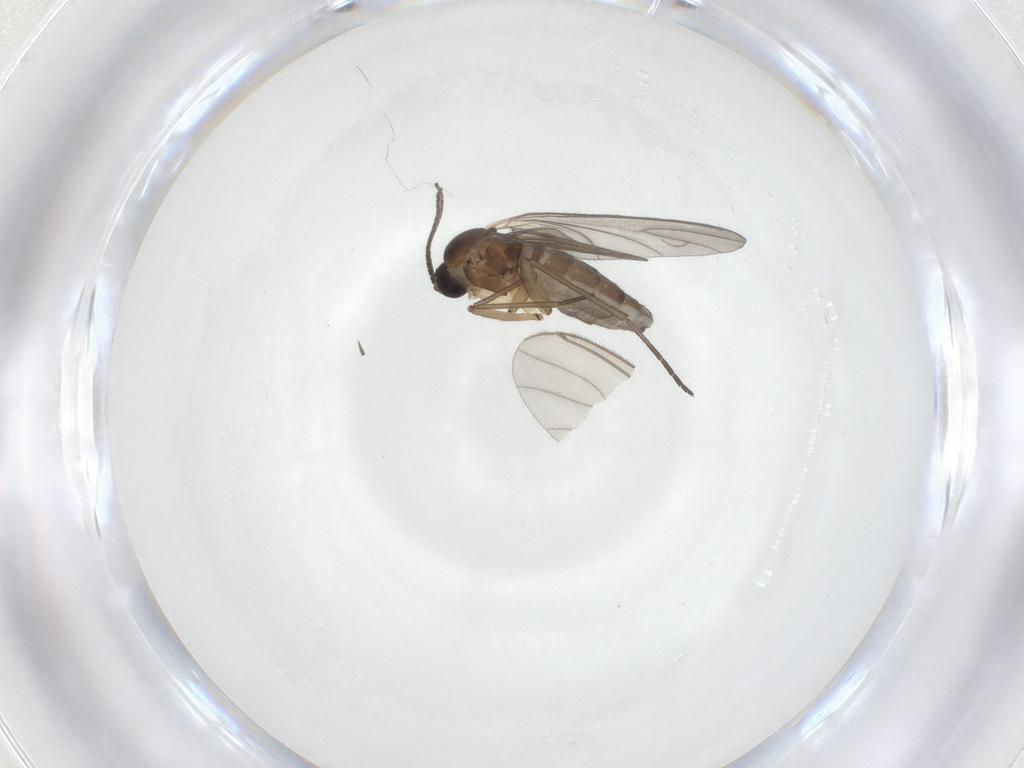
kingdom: Animalia
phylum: Arthropoda
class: Insecta
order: Diptera
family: Sciaridae
